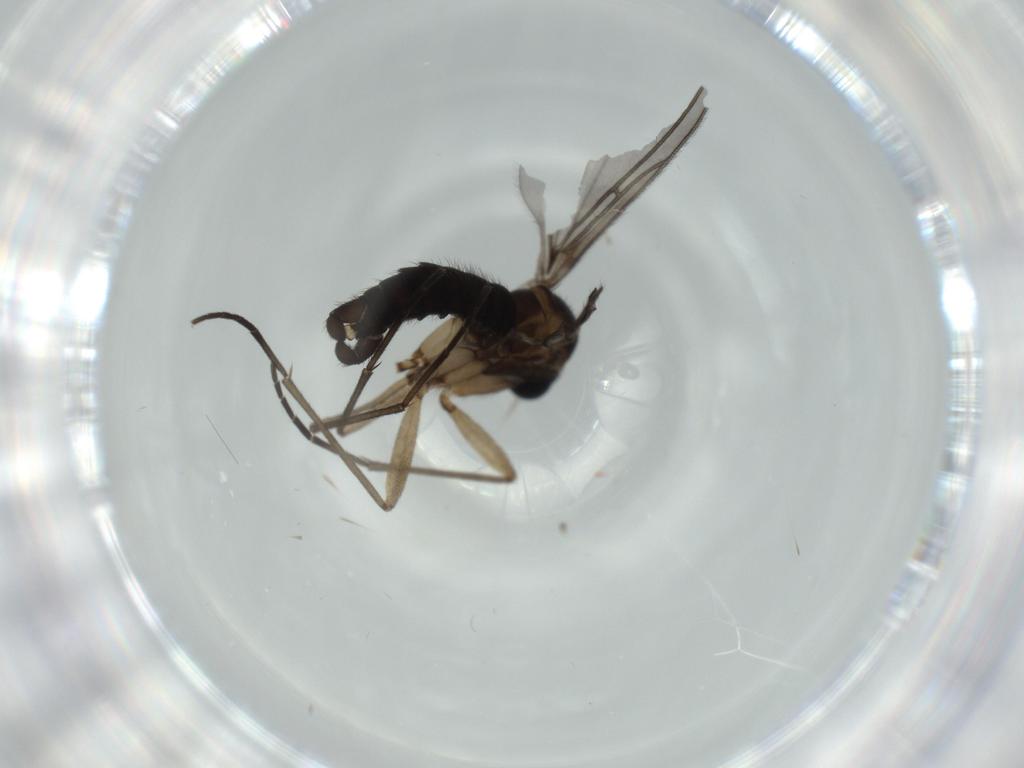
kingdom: Animalia
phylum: Arthropoda
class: Insecta
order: Diptera
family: Sciaridae
